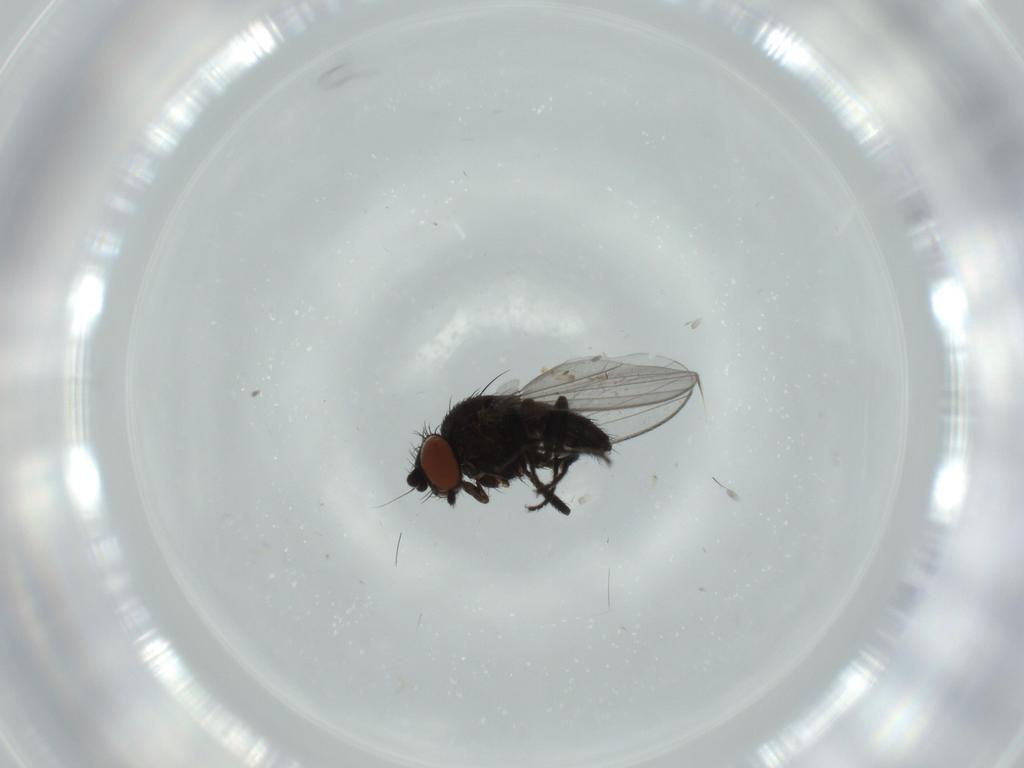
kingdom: Animalia
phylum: Arthropoda
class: Insecta
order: Diptera
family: Milichiidae
